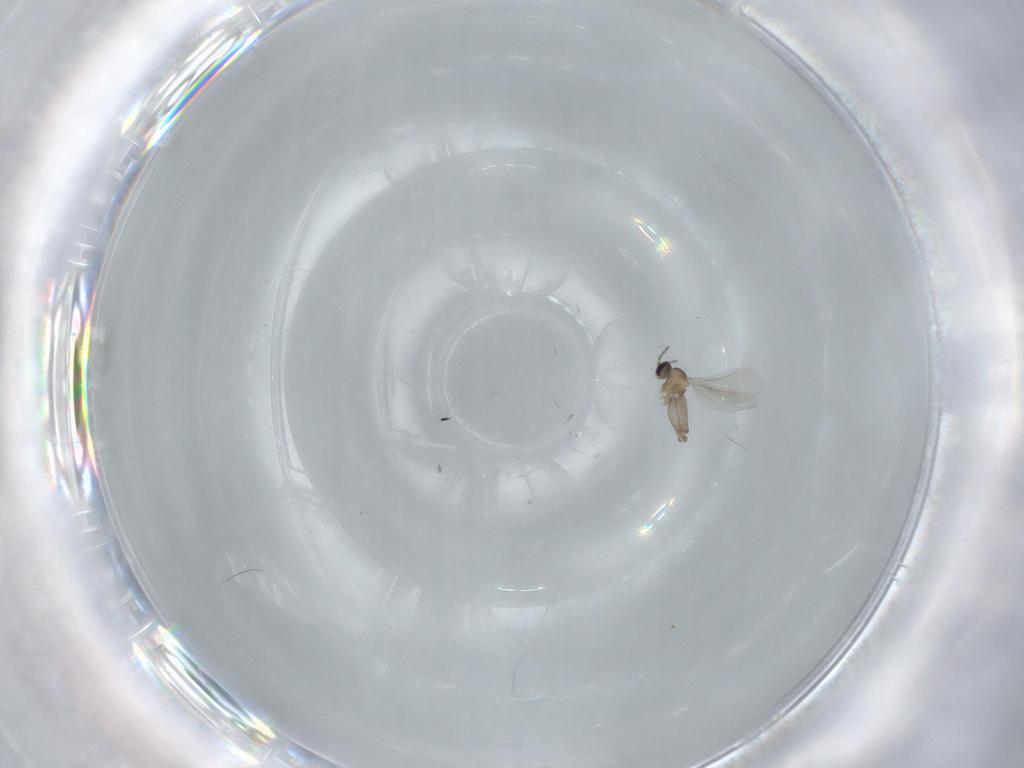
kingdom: Animalia
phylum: Arthropoda
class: Insecta
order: Diptera
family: Cecidomyiidae
